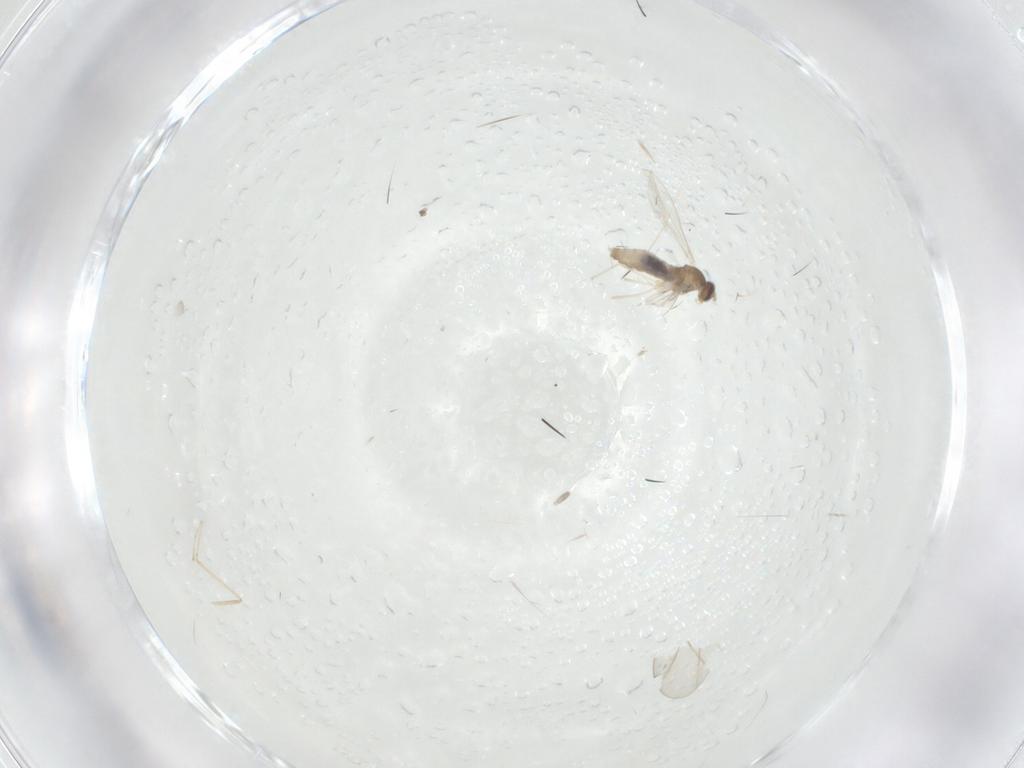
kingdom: Animalia
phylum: Arthropoda
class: Insecta
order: Diptera
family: Cecidomyiidae
